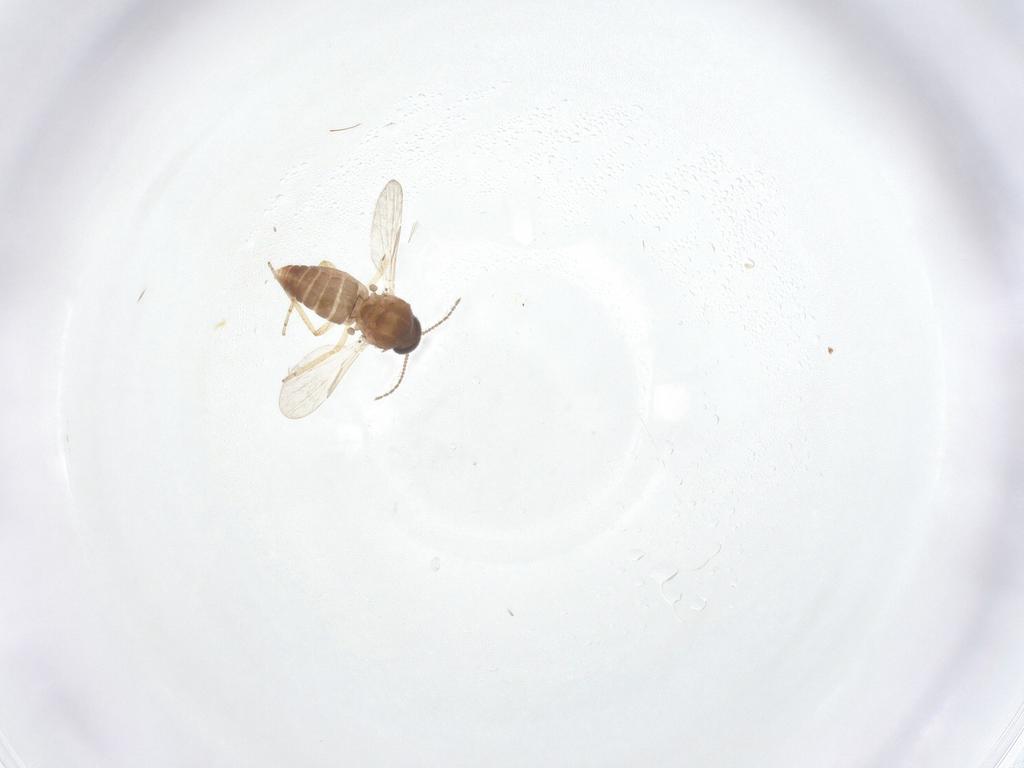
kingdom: Animalia
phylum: Arthropoda
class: Insecta
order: Diptera
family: Ceratopogonidae
